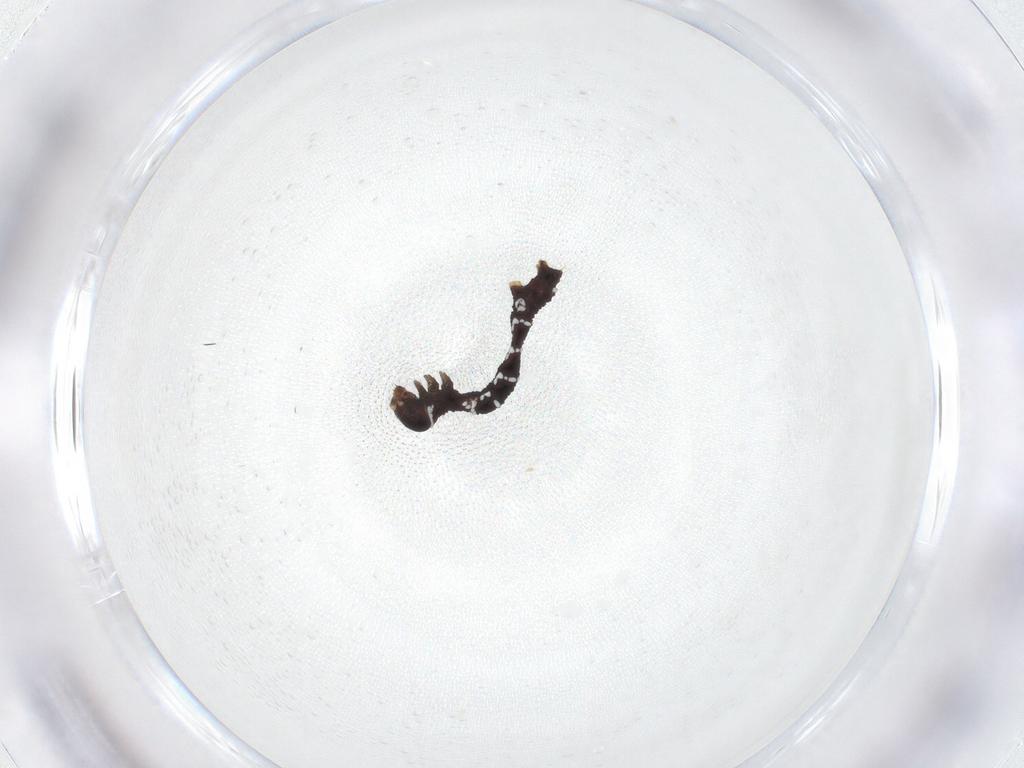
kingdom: Animalia
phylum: Arthropoda
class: Insecta
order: Lepidoptera
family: Geometridae
